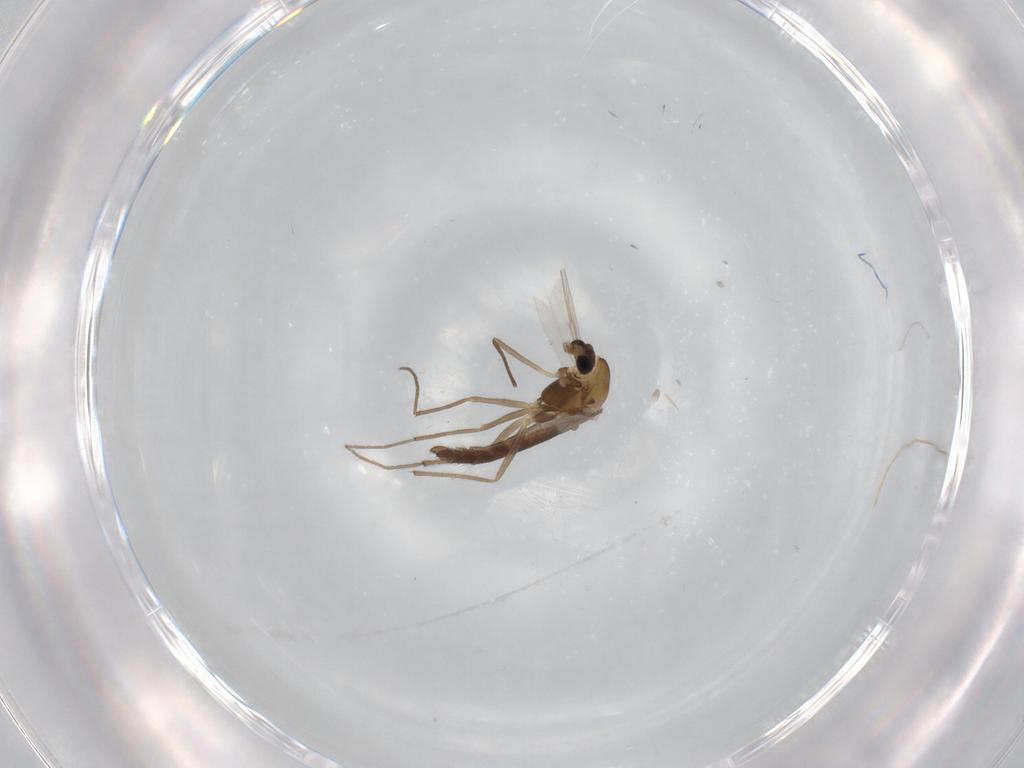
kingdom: Animalia
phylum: Arthropoda
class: Insecta
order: Diptera
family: Chironomidae
